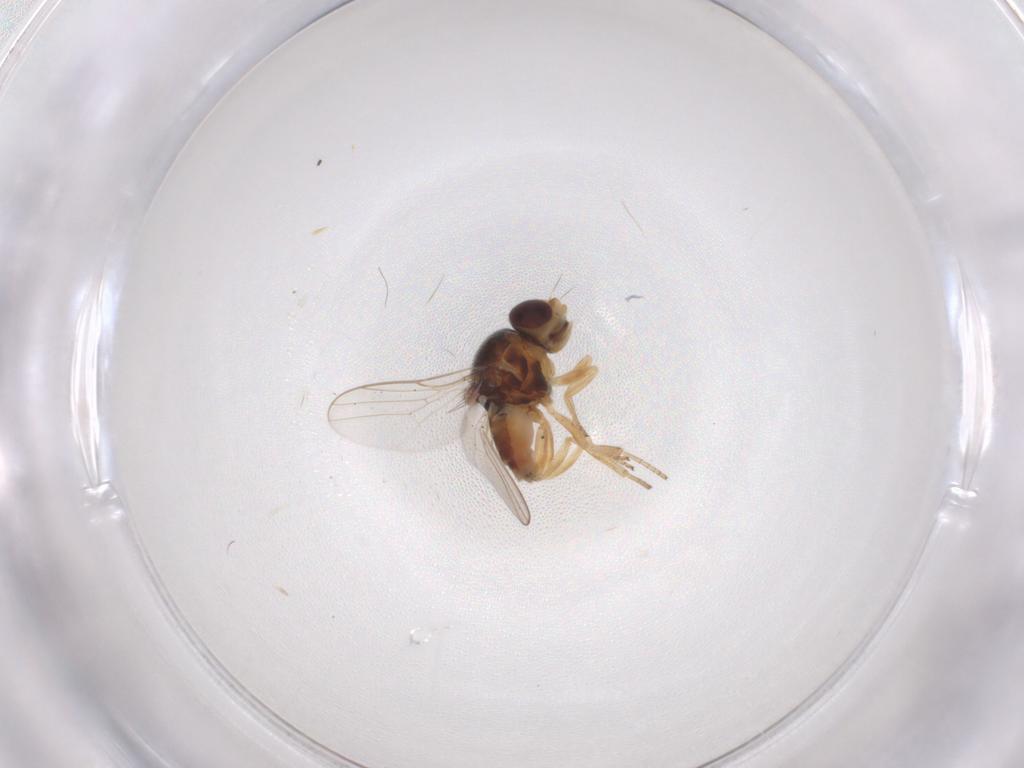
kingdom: Animalia
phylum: Arthropoda
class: Insecta
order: Diptera
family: Chloropidae
